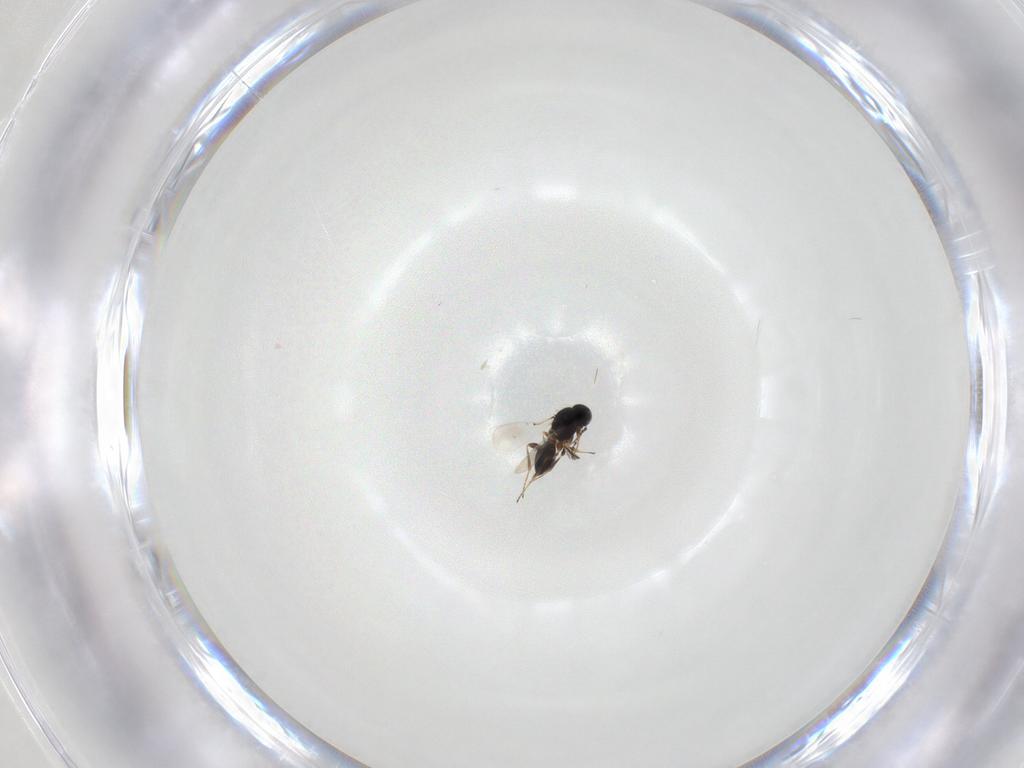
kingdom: Animalia
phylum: Arthropoda
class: Insecta
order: Hymenoptera
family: Platygastridae
